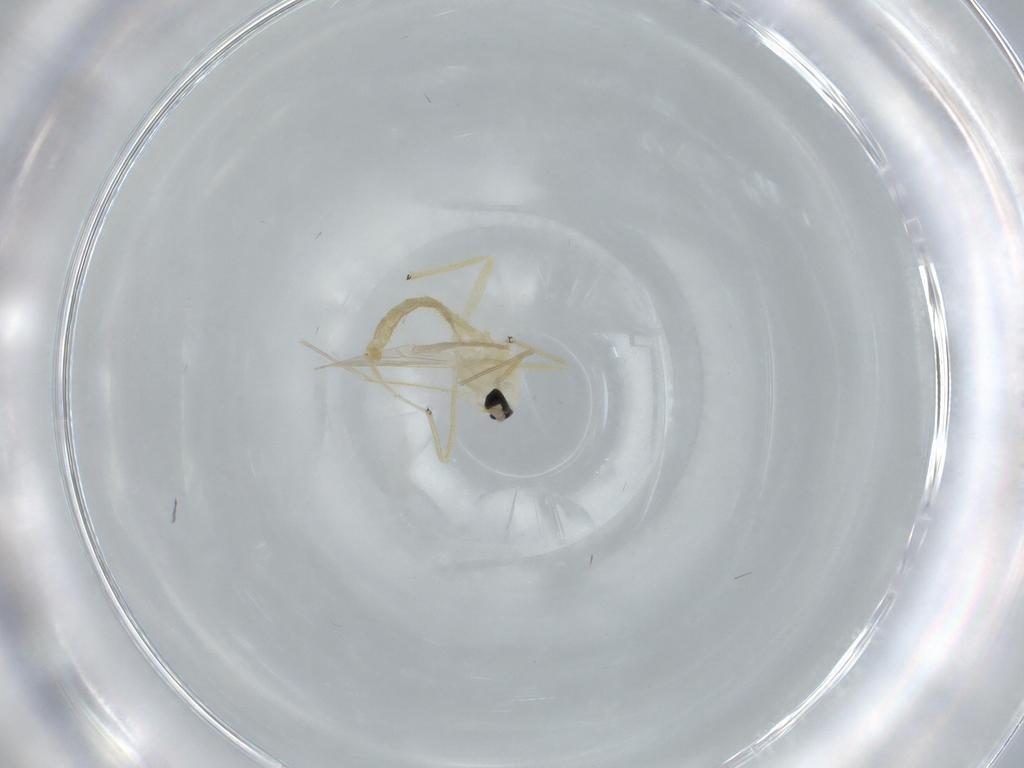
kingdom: Animalia
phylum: Arthropoda
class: Insecta
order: Diptera
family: Chironomidae
